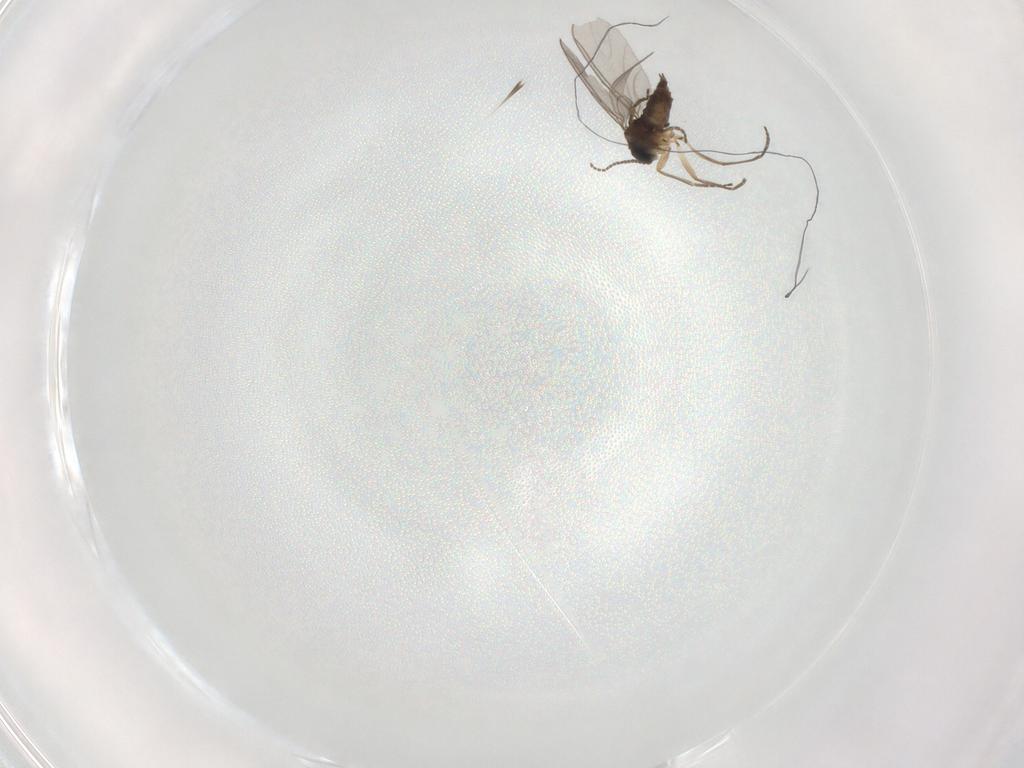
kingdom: Animalia
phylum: Arthropoda
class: Insecta
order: Diptera
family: Sciaridae
